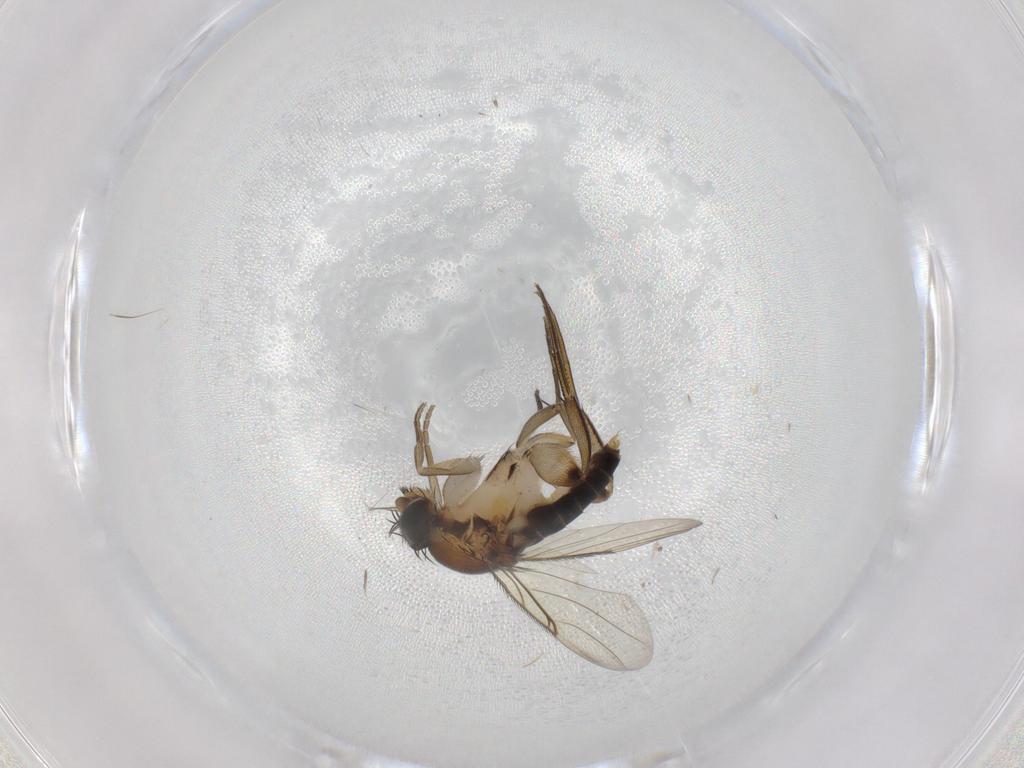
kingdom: Animalia
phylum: Arthropoda
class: Insecta
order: Diptera
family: Phoridae
